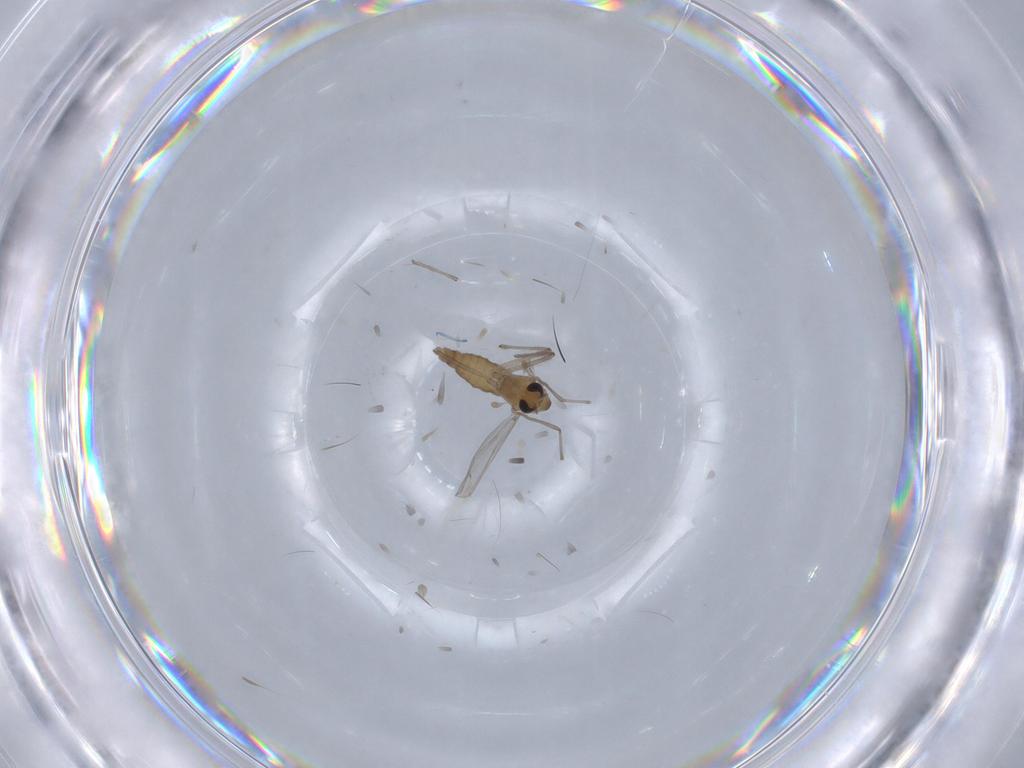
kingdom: Animalia
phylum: Arthropoda
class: Insecta
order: Diptera
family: Chironomidae
